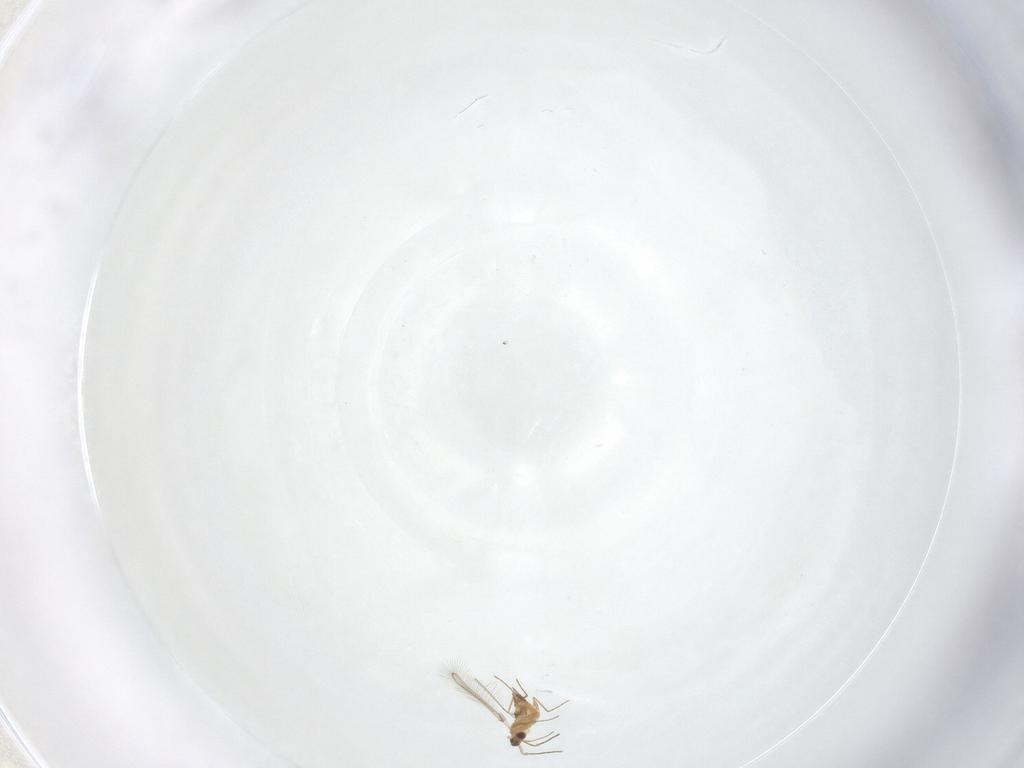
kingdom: Animalia
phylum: Arthropoda
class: Insecta
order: Hymenoptera
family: Mymaridae
